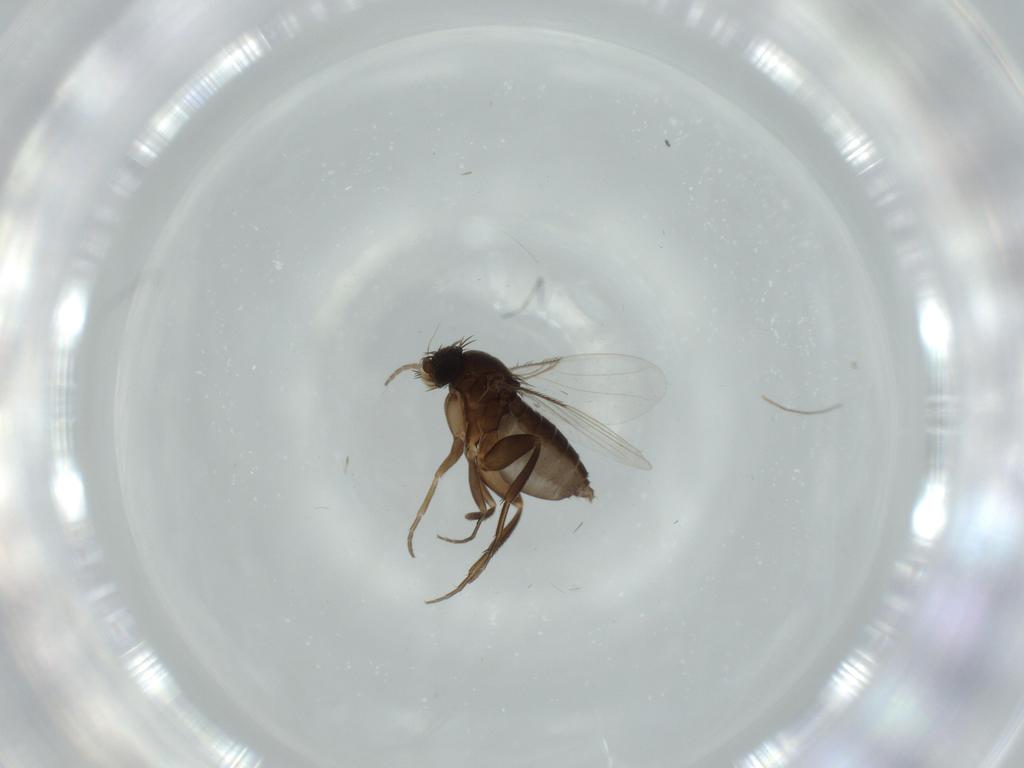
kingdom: Animalia
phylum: Arthropoda
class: Insecta
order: Diptera
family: Phoridae
